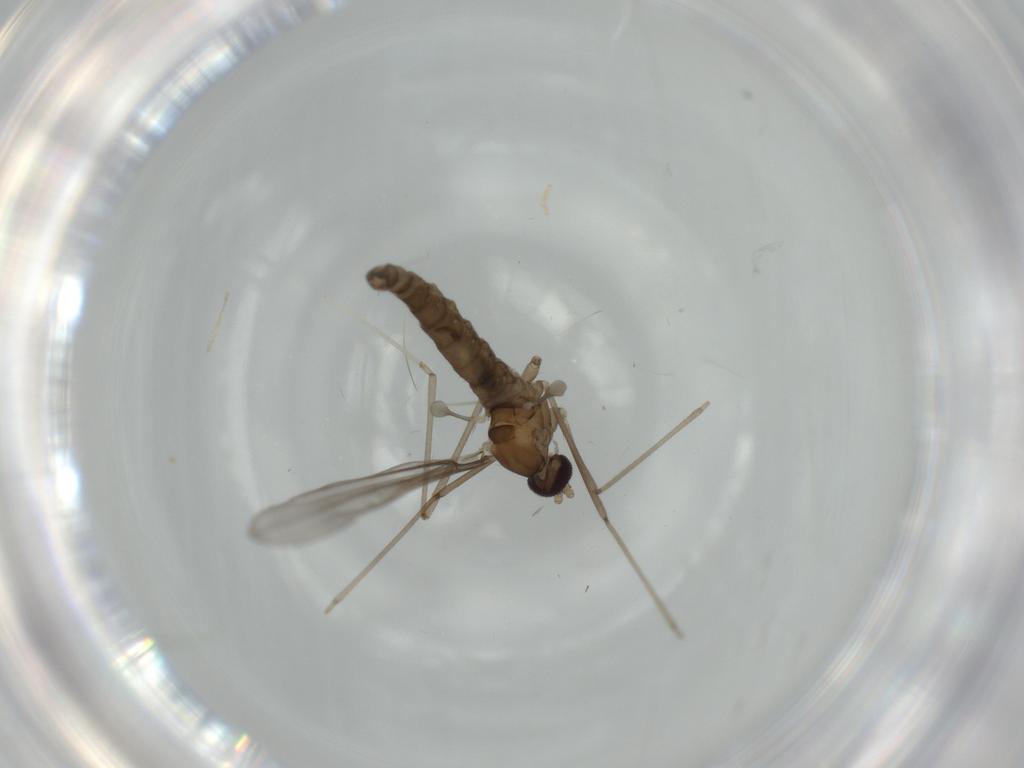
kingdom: Animalia
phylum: Arthropoda
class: Insecta
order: Diptera
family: Cecidomyiidae
